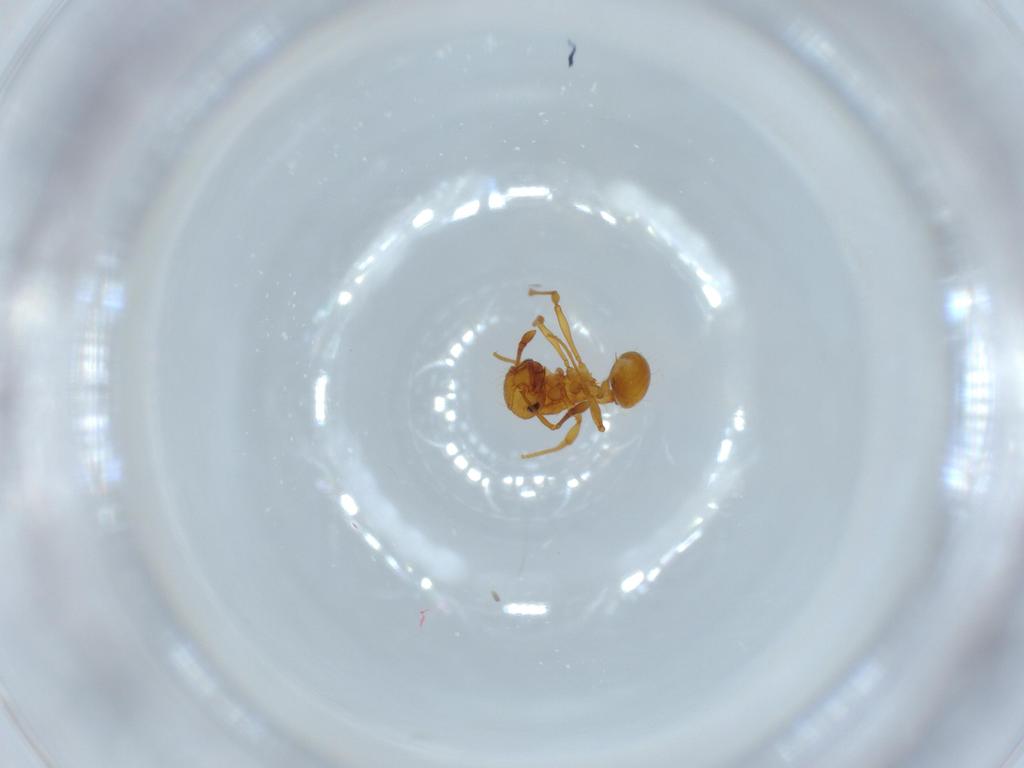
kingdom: Animalia
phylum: Arthropoda
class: Insecta
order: Hymenoptera
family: Formicidae
